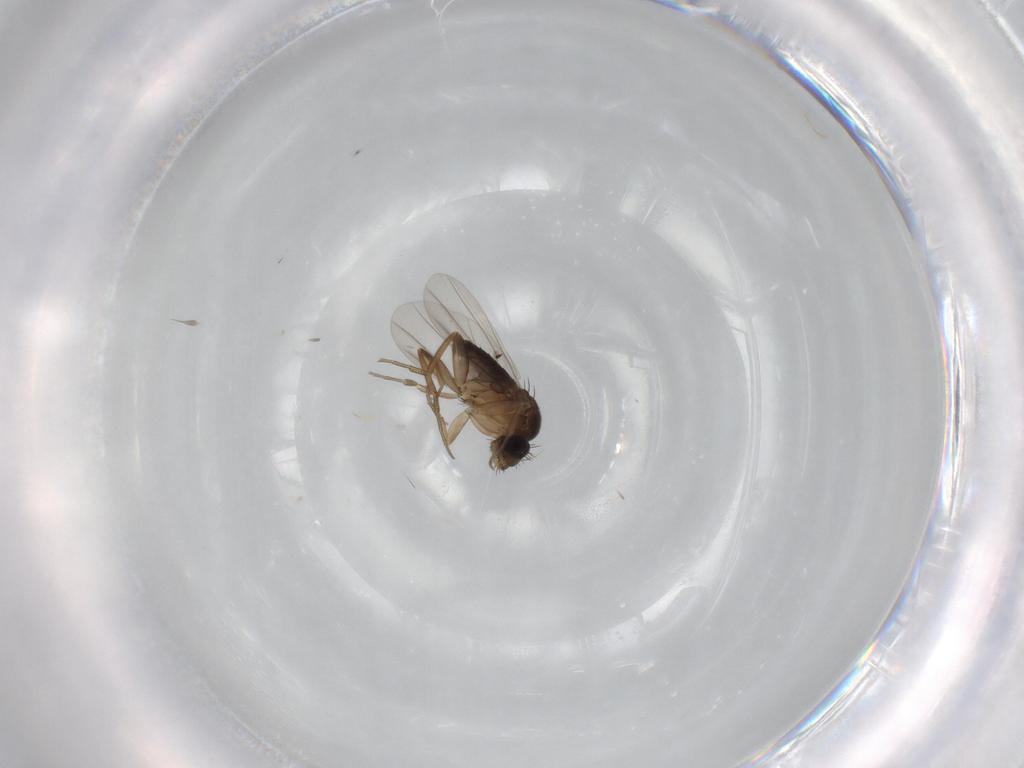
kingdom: Animalia
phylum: Arthropoda
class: Insecta
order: Diptera
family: Phoridae
